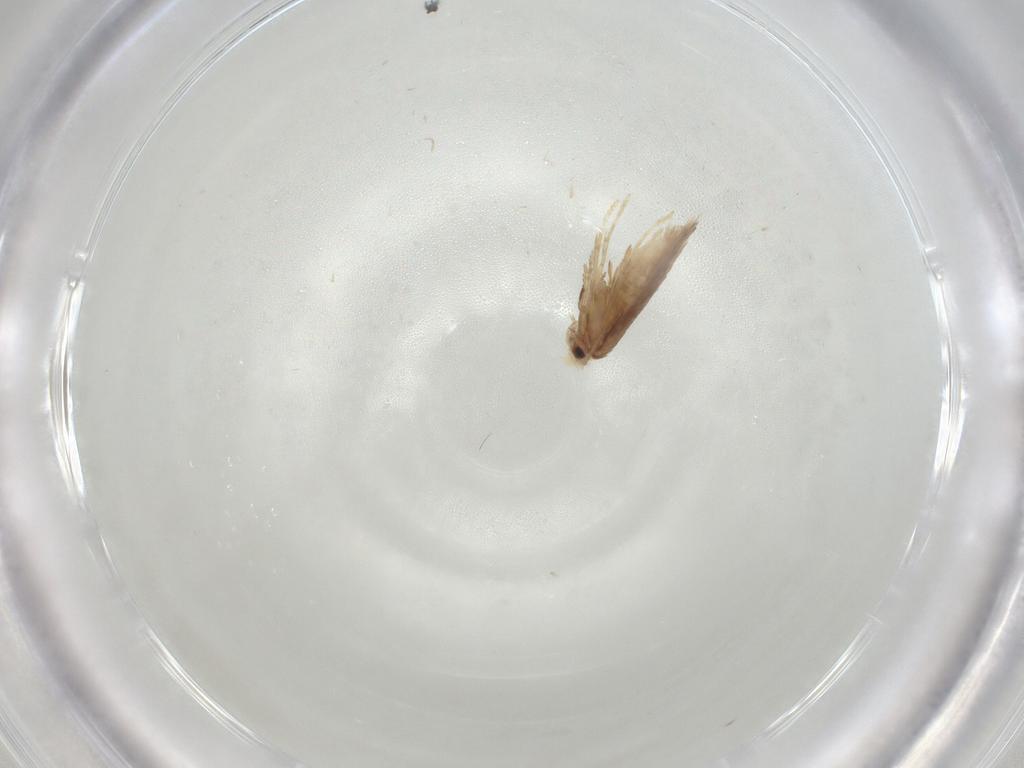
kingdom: Animalia
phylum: Arthropoda
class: Insecta
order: Lepidoptera
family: Nepticulidae
